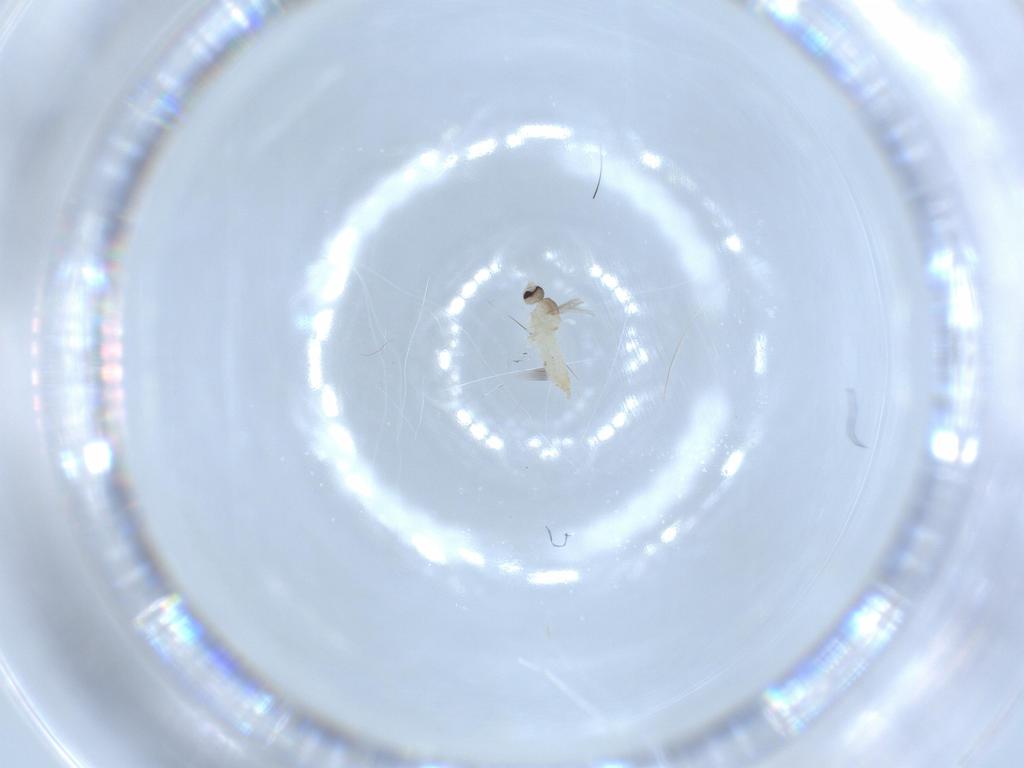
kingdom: Animalia
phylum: Arthropoda
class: Insecta
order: Diptera
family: Cecidomyiidae
